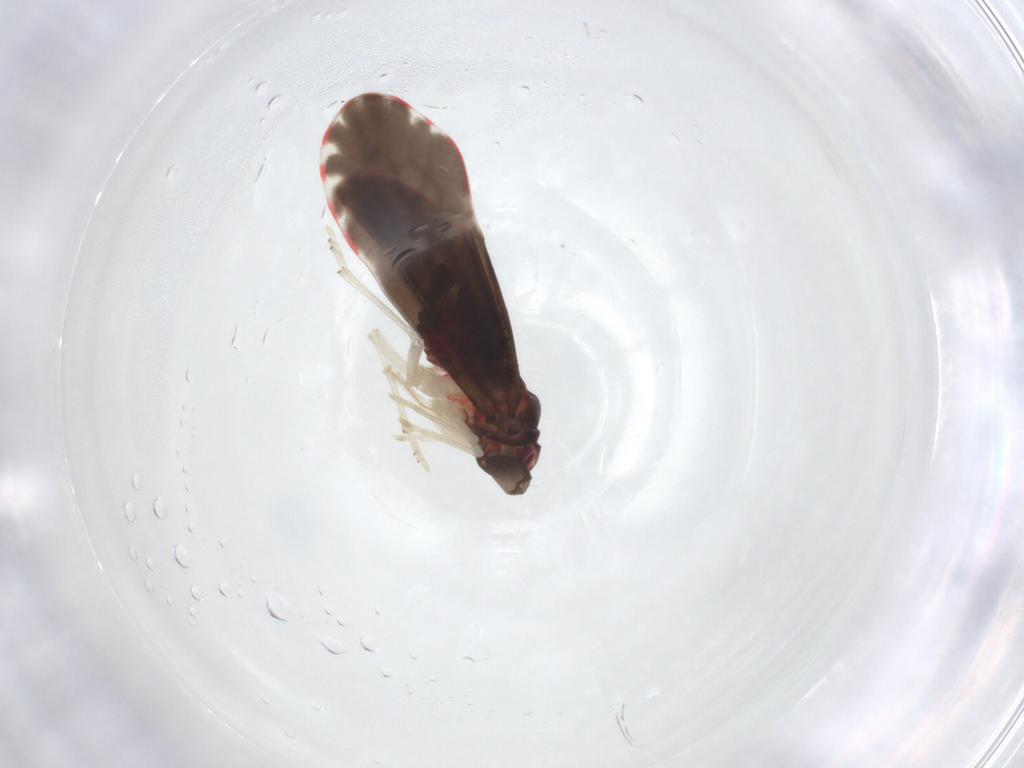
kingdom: Animalia
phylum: Arthropoda
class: Insecta
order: Hemiptera
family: Derbidae
